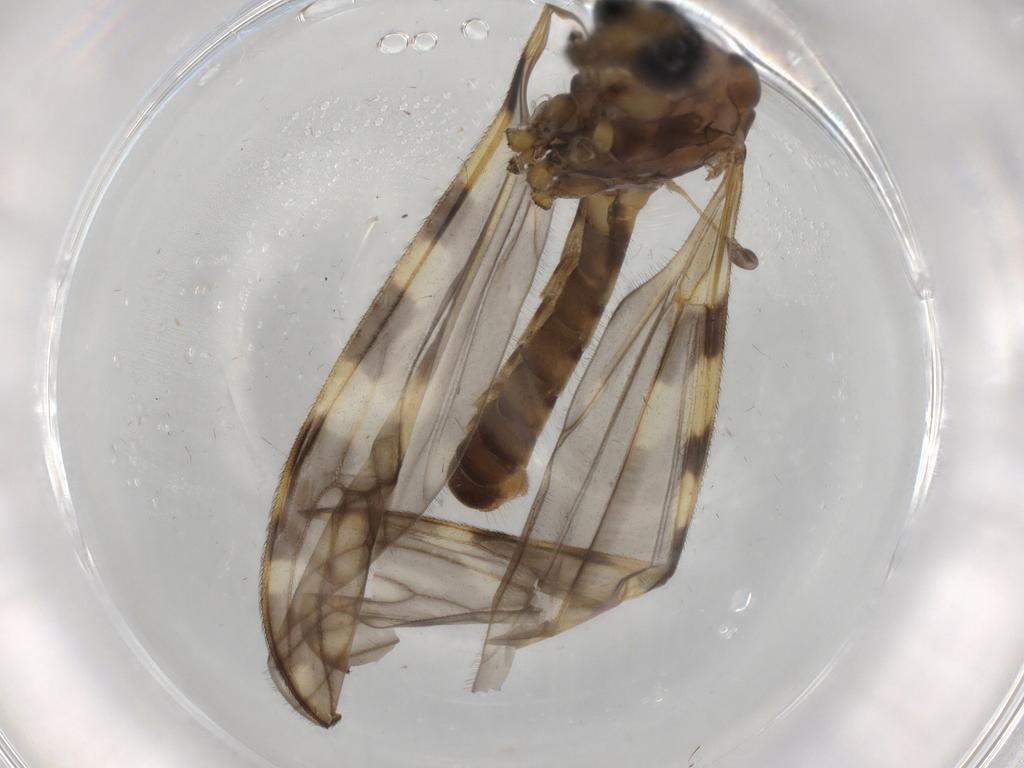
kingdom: Animalia
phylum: Arthropoda
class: Insecta
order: Diptera
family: Cecidomyiidae
